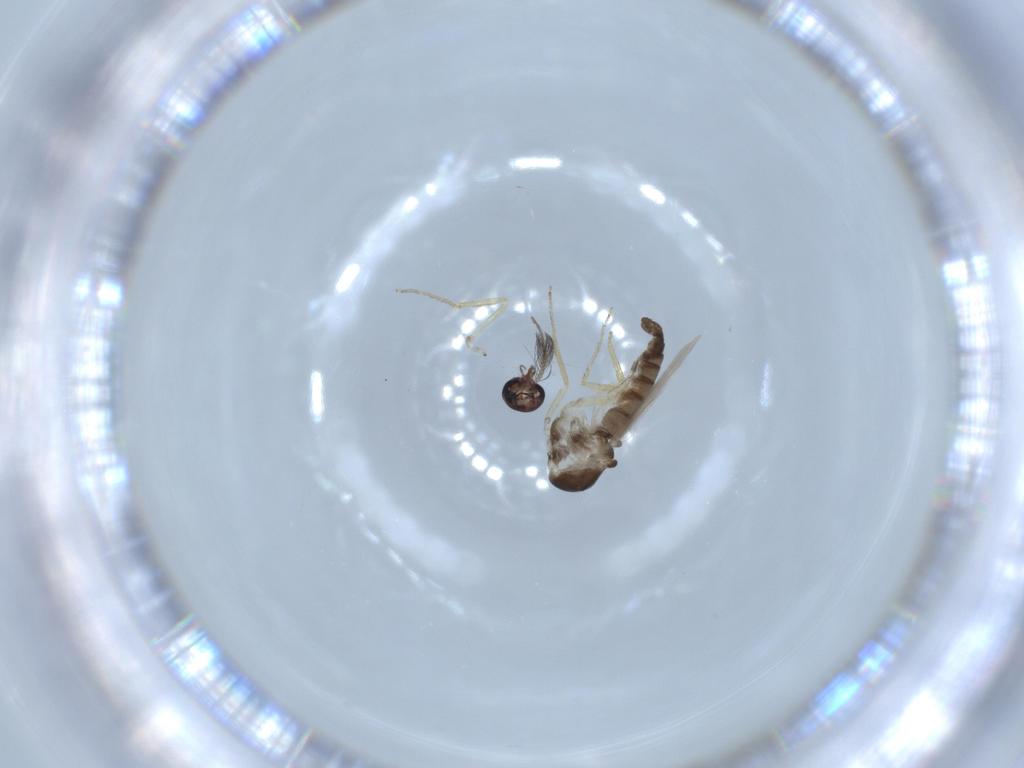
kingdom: Animalia
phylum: Arthropoda
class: Insecta
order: Diptera
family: Ceratopogonidae
